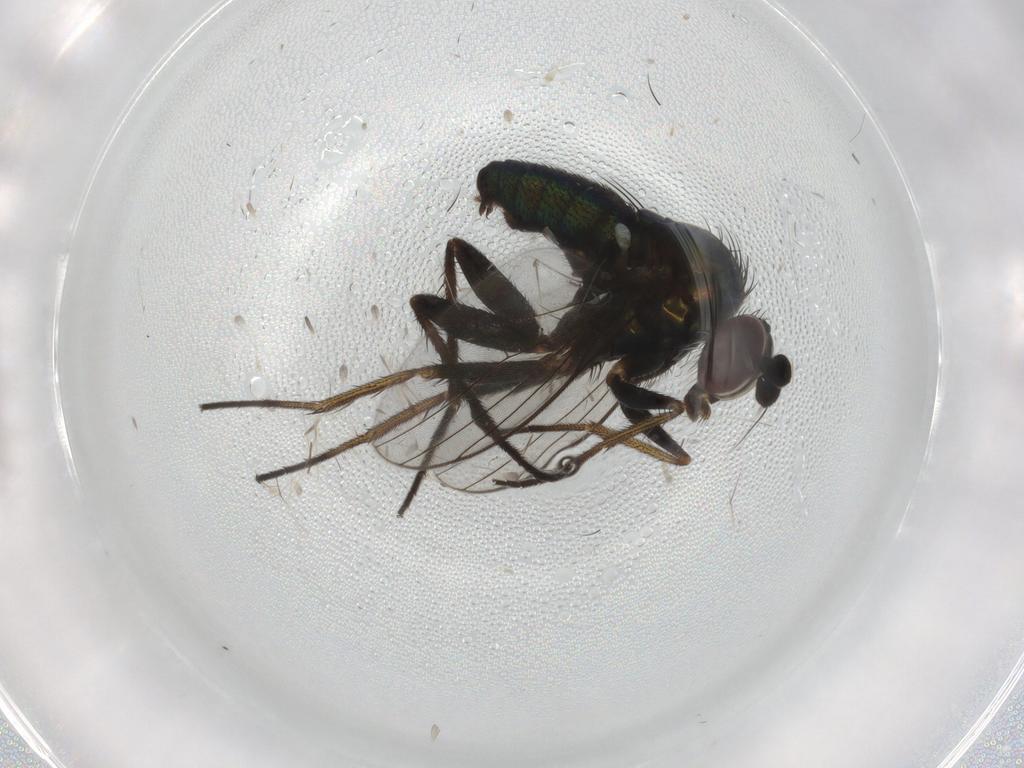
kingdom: Animalia
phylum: Arthropoda
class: Insecta
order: Diptera
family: Dolichopodidae
